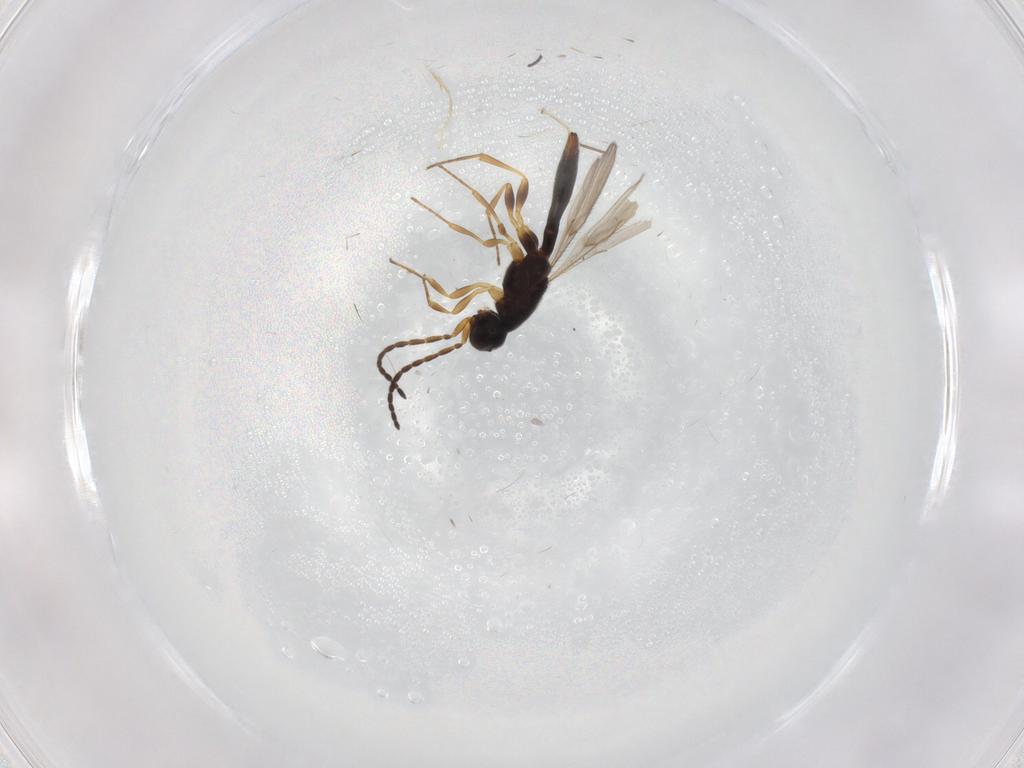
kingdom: Animalia
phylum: Arthropoda
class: Insecta
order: Hymenoptera
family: Scelionidae
